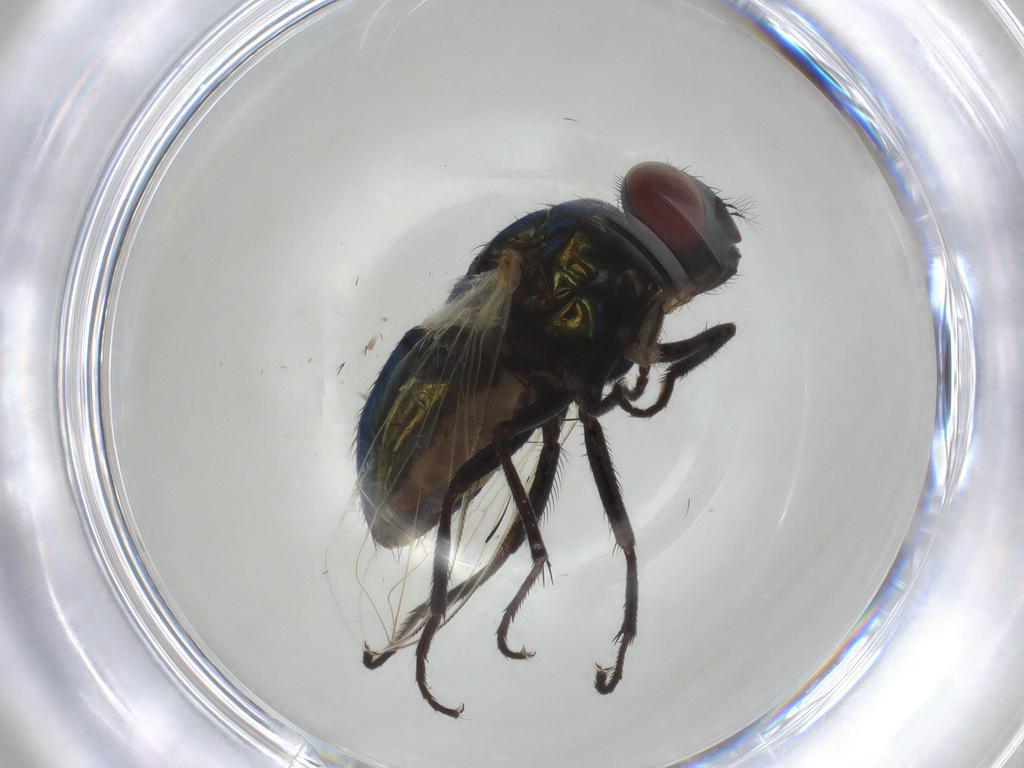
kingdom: Animalia
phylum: Arthropoda
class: Insecta
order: Diptera
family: Muscidae
